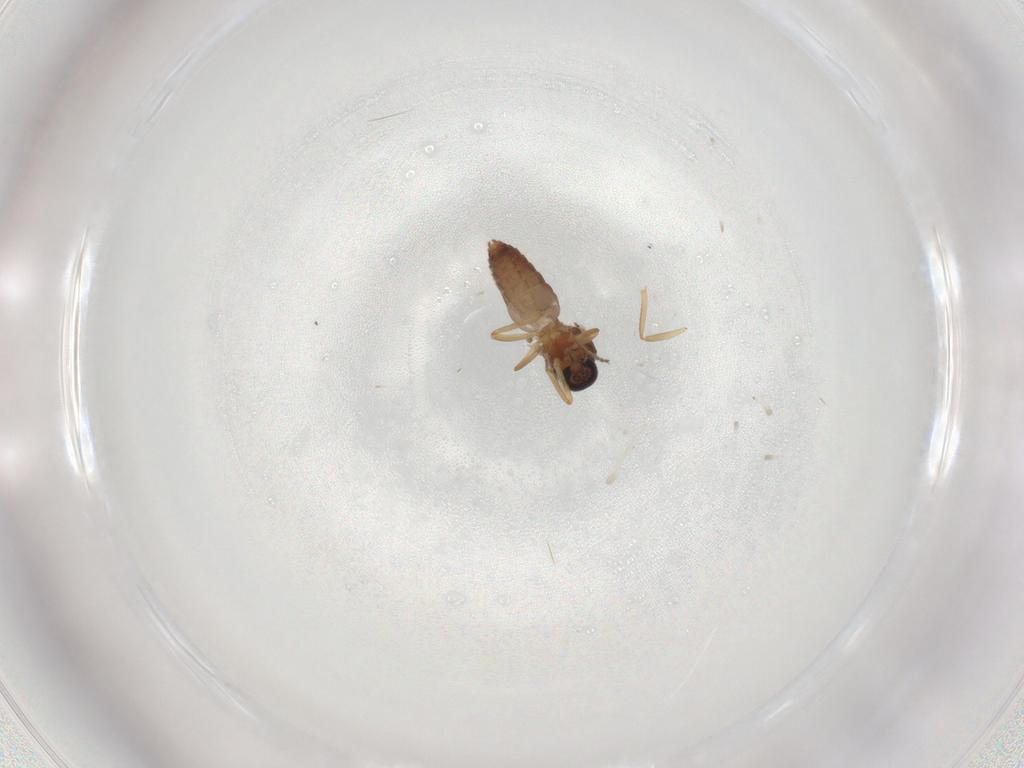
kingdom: Animalia
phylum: Arthropoda
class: Insecta
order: Diptera
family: Ceratopogonidae
